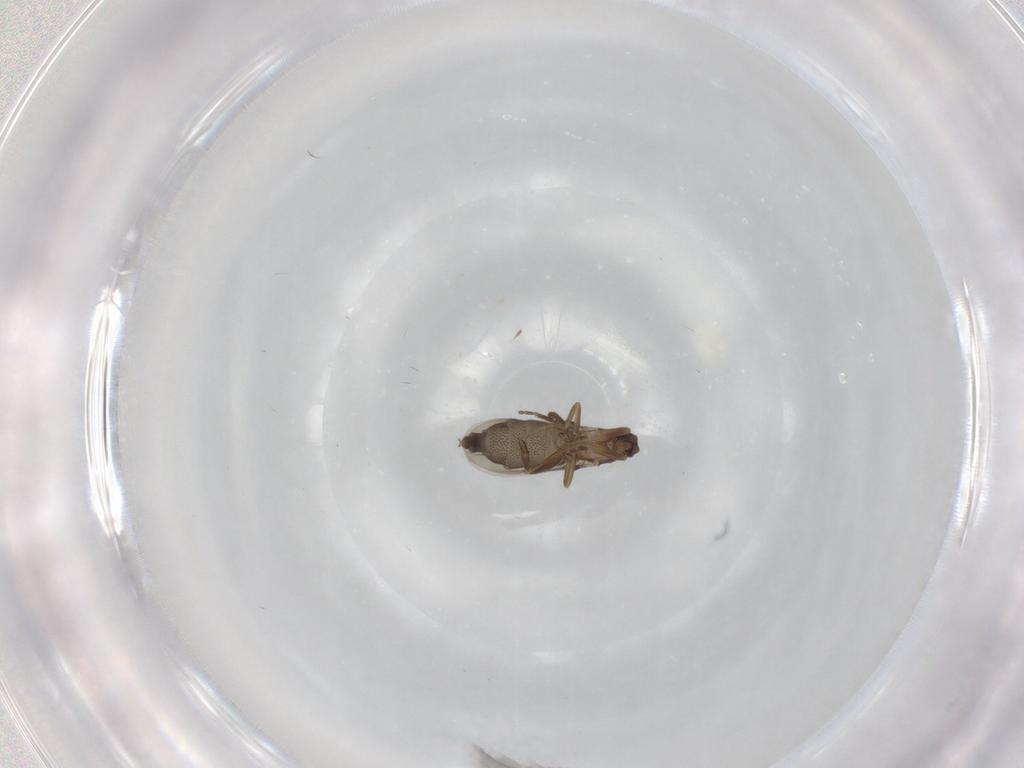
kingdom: Animalia
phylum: Arthropoda
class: Insecta
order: Diptera
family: Phoridae
